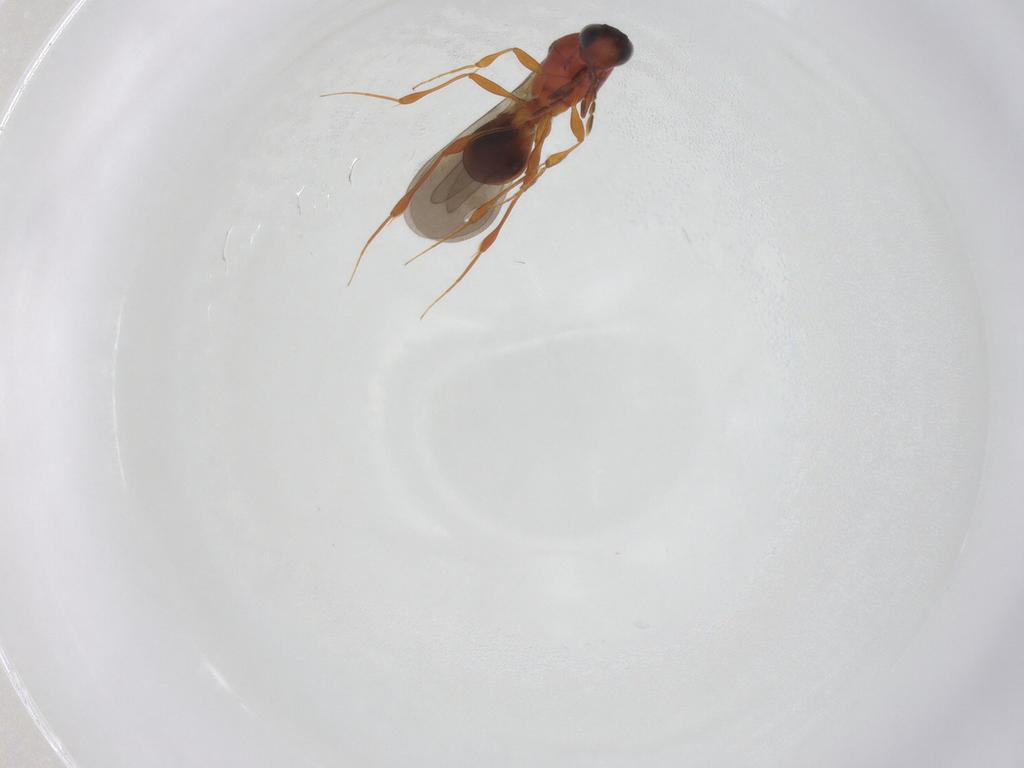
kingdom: Animalia
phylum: Arthropoda
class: Insecta
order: Hymenoptera
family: Platygastridae
